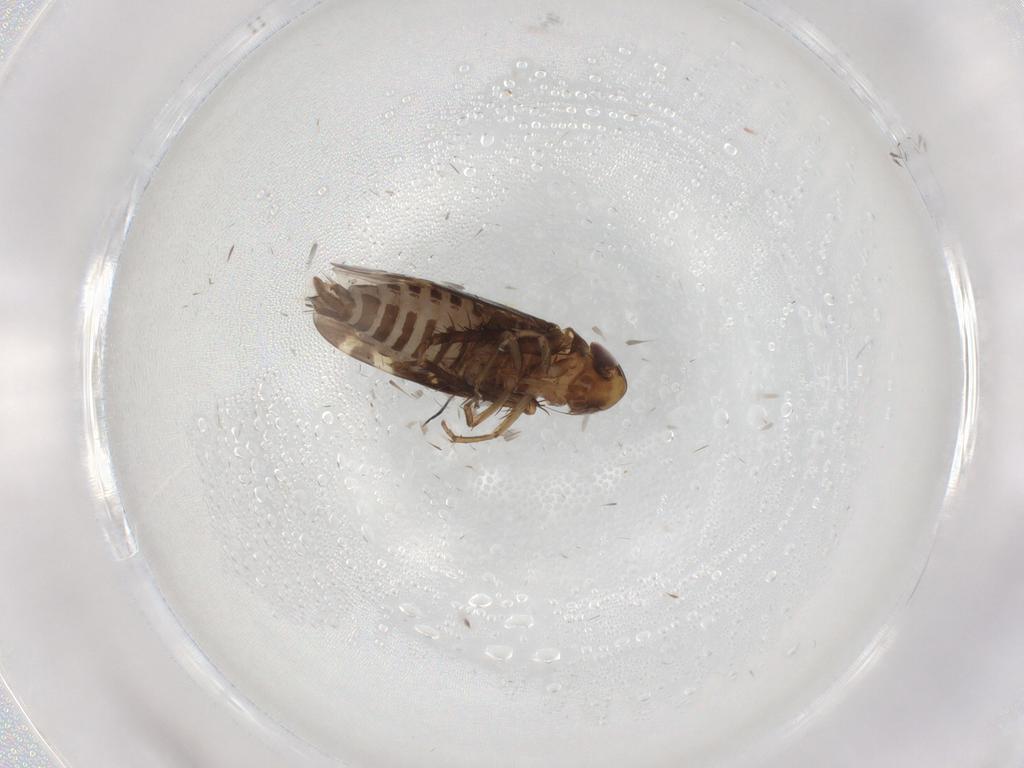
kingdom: Animalia
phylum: Arthropoda
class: Insecta
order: Hemiptera
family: Cicadellidae
